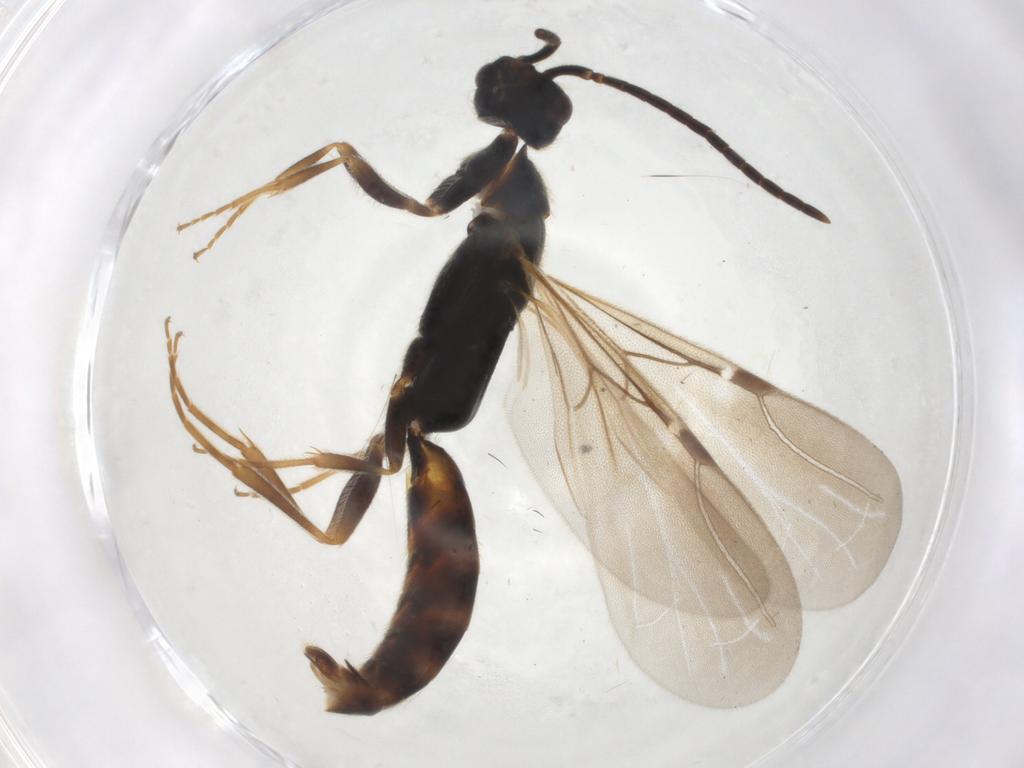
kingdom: Animalia
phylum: Arthropoda
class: Insecta
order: Hymenoptera
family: Bethylidae
